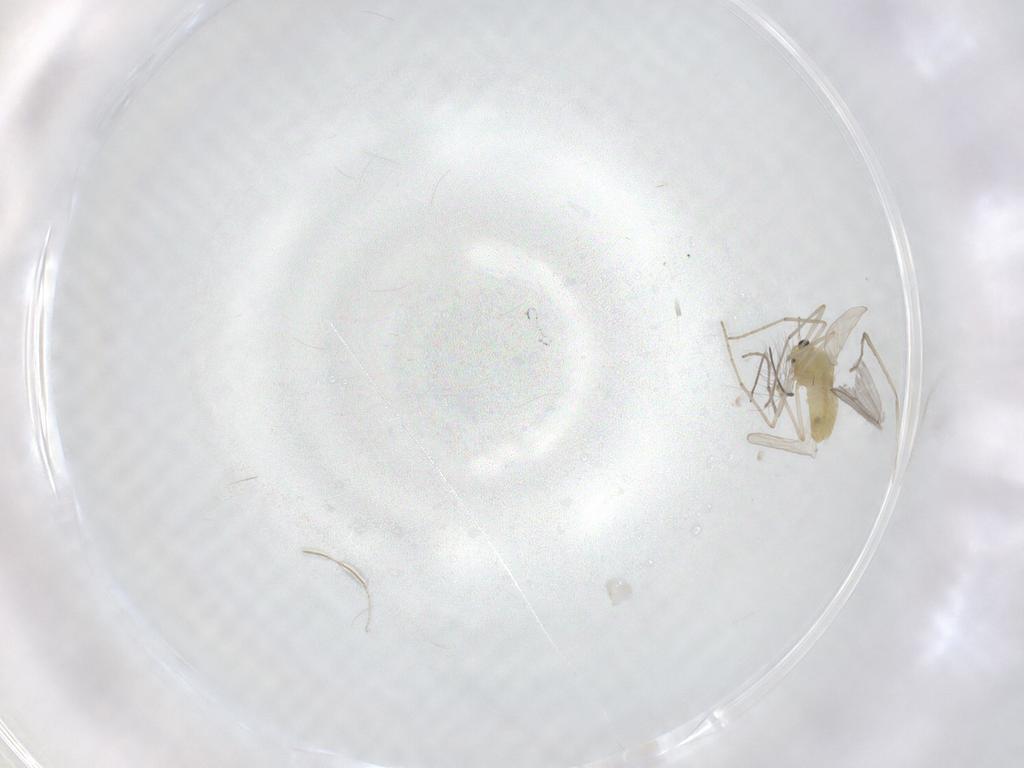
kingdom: Animalia
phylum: Arthropoda
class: Insecta
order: Diptera
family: Chironomidae
